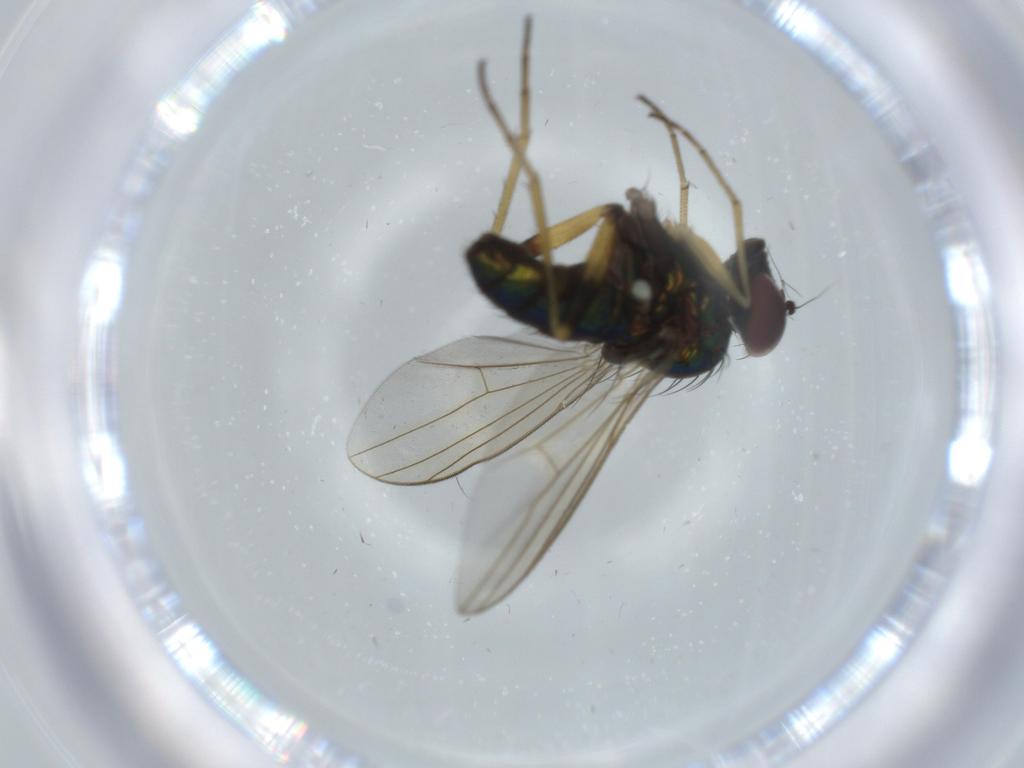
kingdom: Animalia
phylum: Arthropoda
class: Insecta
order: Diptera
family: Dolichopodidae
